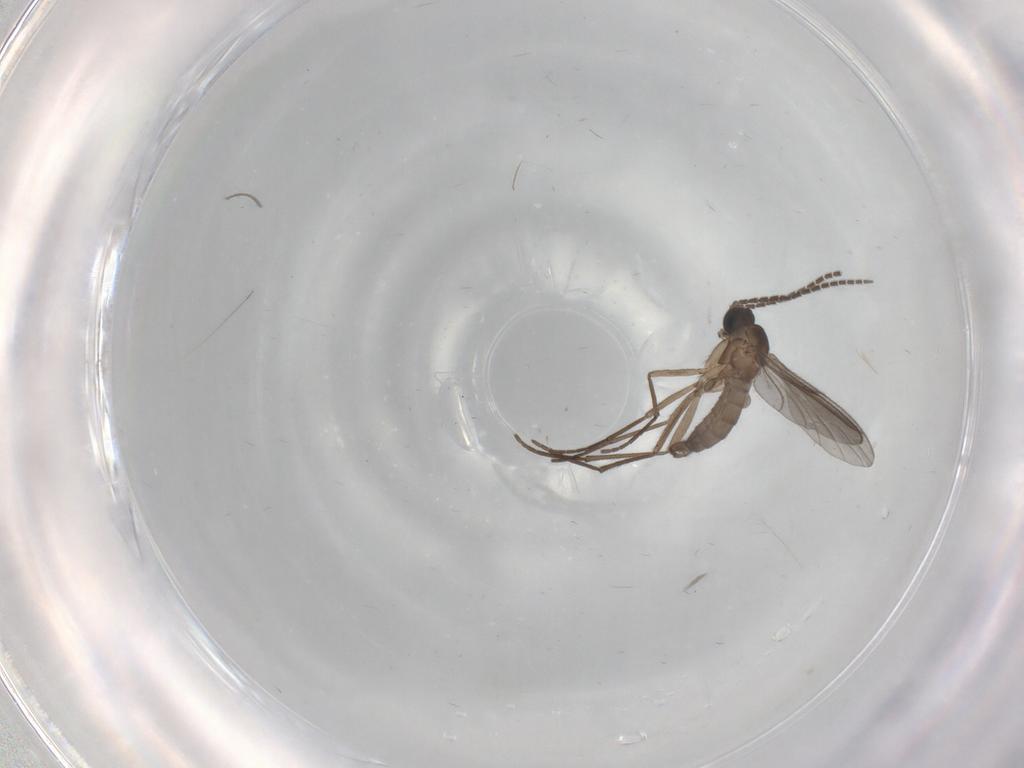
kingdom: Animalia
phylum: Arthropoda
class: Insecta
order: Diptera
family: Sciaridae
